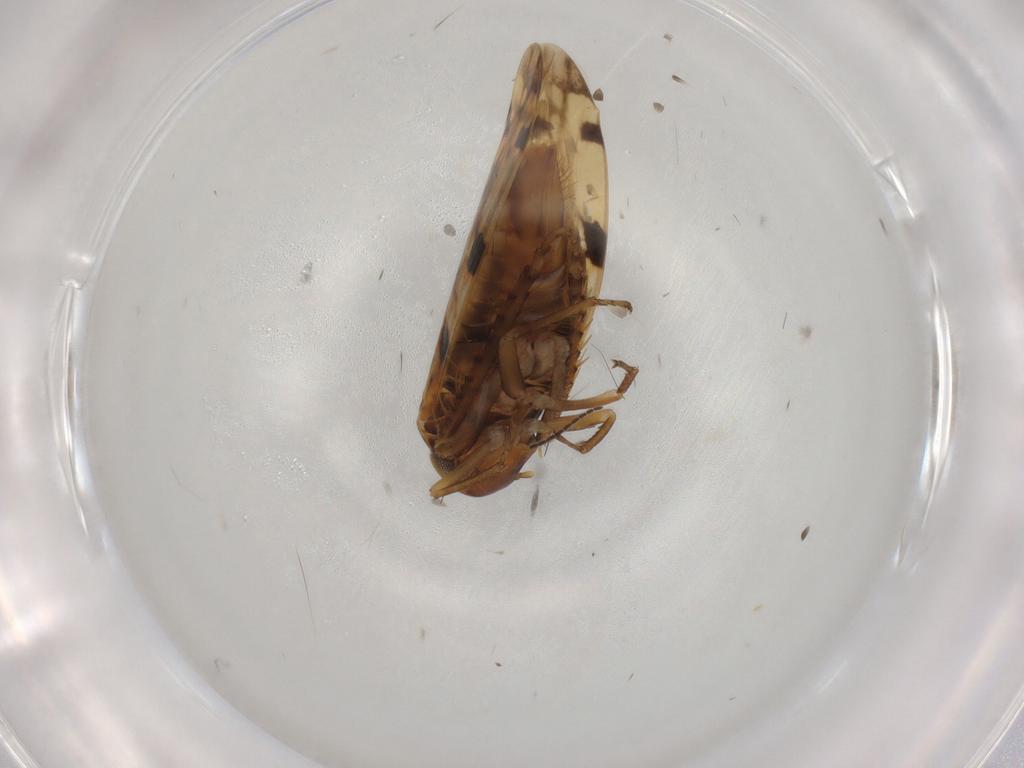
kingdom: Animalia
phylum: Arthropoda
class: Insecta
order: Hemiptera
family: Cicadellidae
